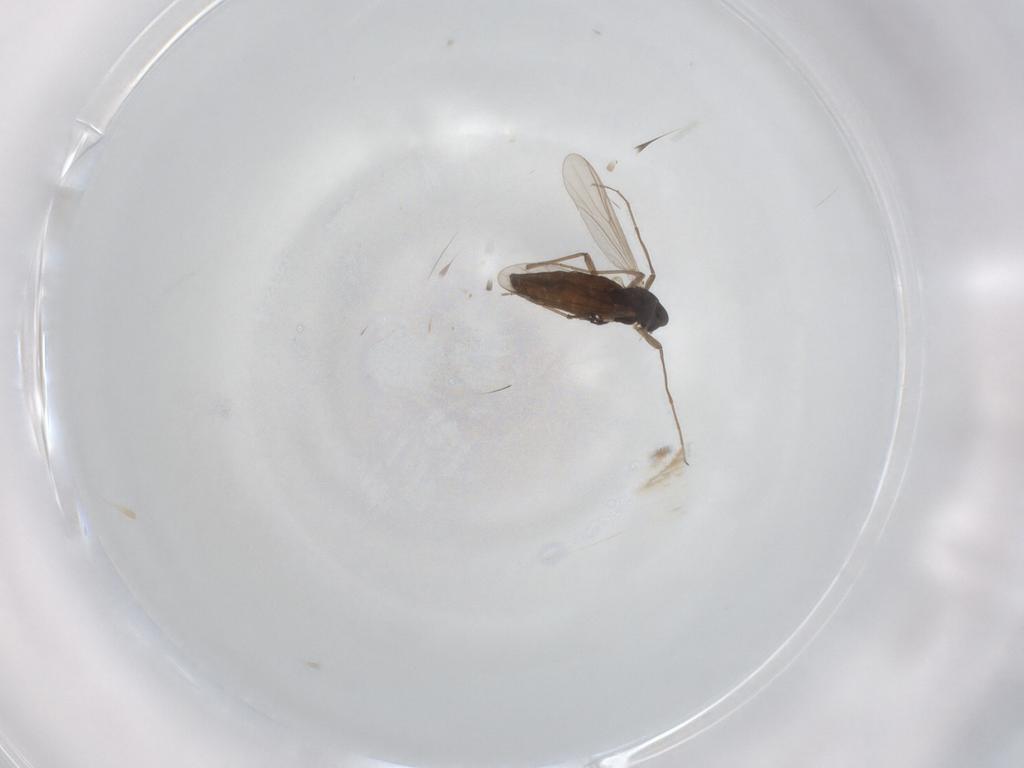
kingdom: Animalia
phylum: Arthropoda
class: Insecta
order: Diptera
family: Chironomidae
